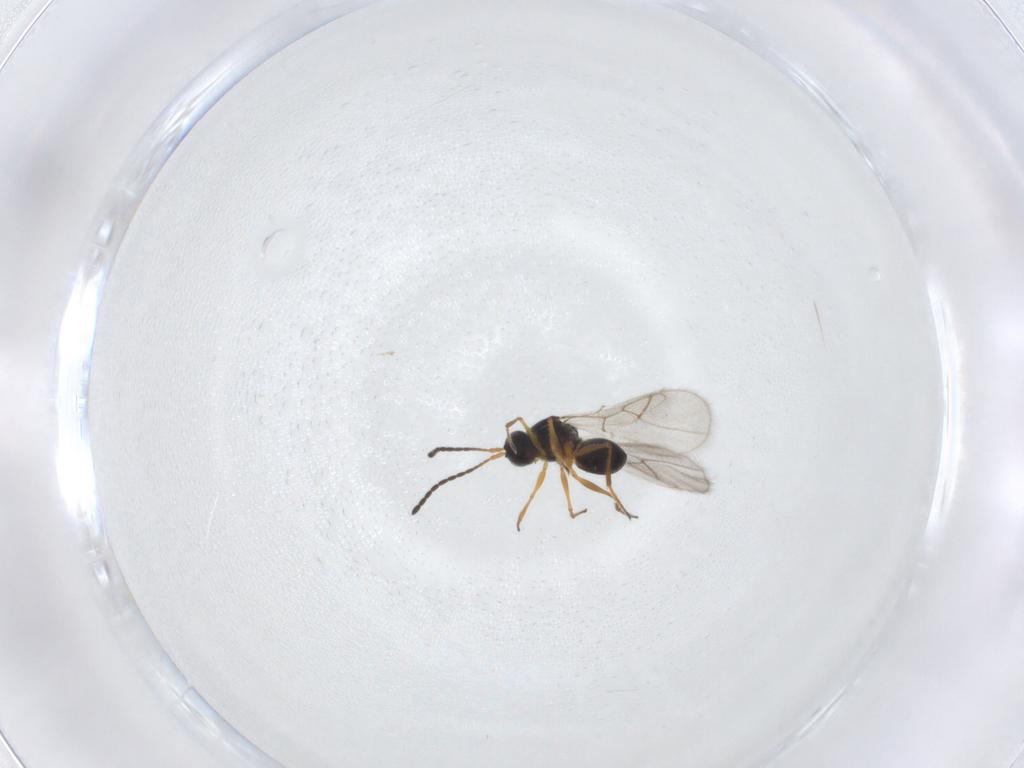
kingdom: Animalia
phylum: Arthropoda
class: Insecta
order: Hymenoptera
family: Figitidae
